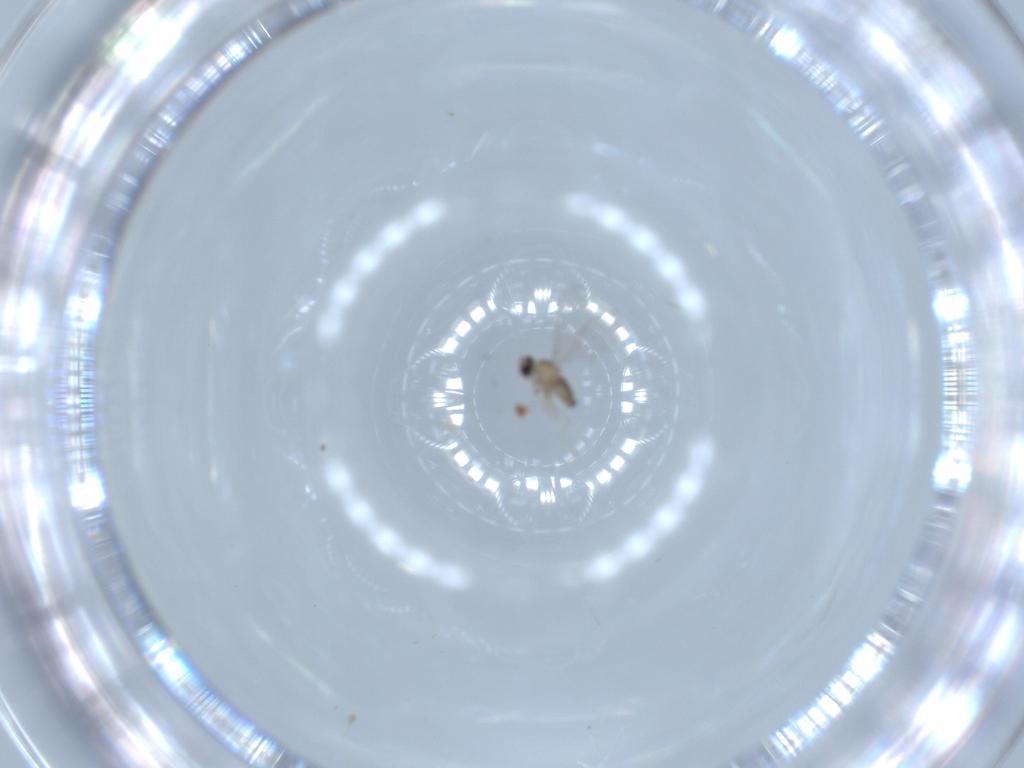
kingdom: Animalia
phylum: Arthropoda
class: Insecta
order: Diptera
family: Cecidomyiidae
